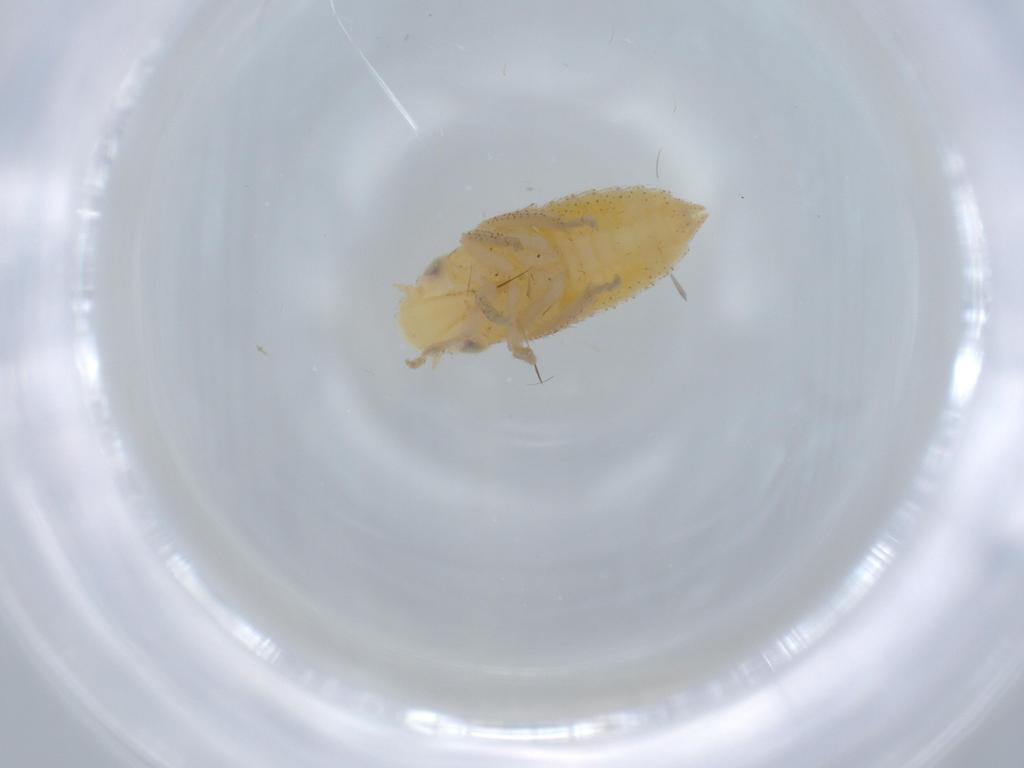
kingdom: Animalia
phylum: Arthropoda
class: Insecta
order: Hemiptera
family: Cicadellidae
